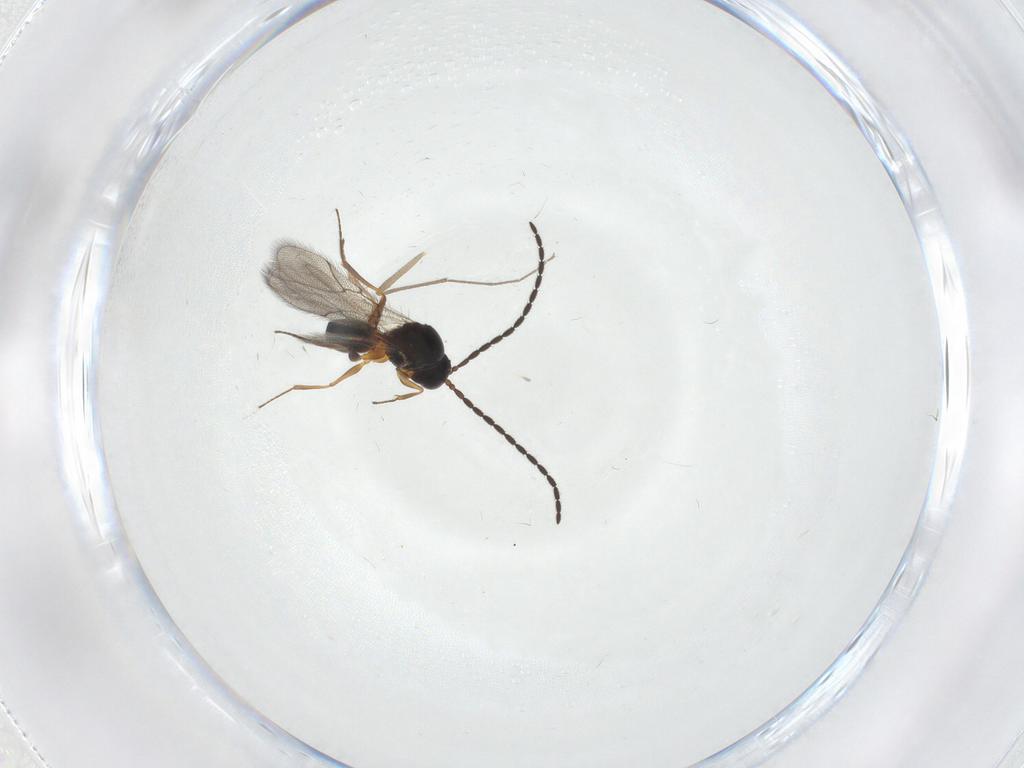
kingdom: Animalia
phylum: Arthropoda
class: Insecta
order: Hymenoptera
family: Figitidae
